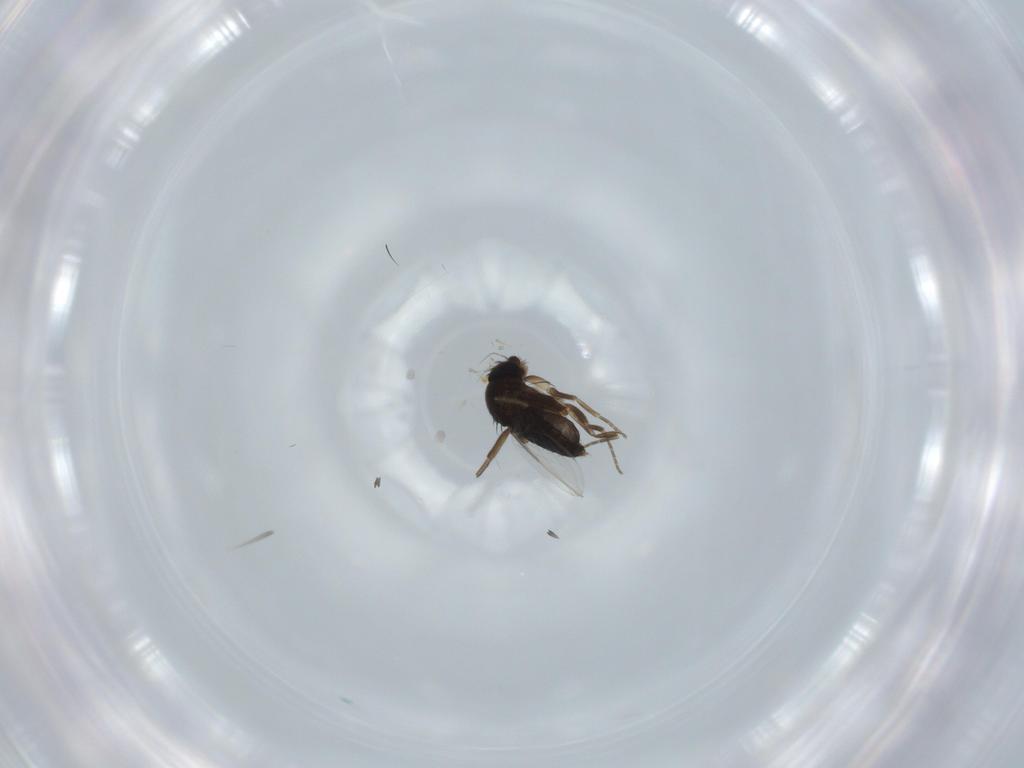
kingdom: Animalia
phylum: Arthropoda
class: Insecta
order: Diptera
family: Phoridae
